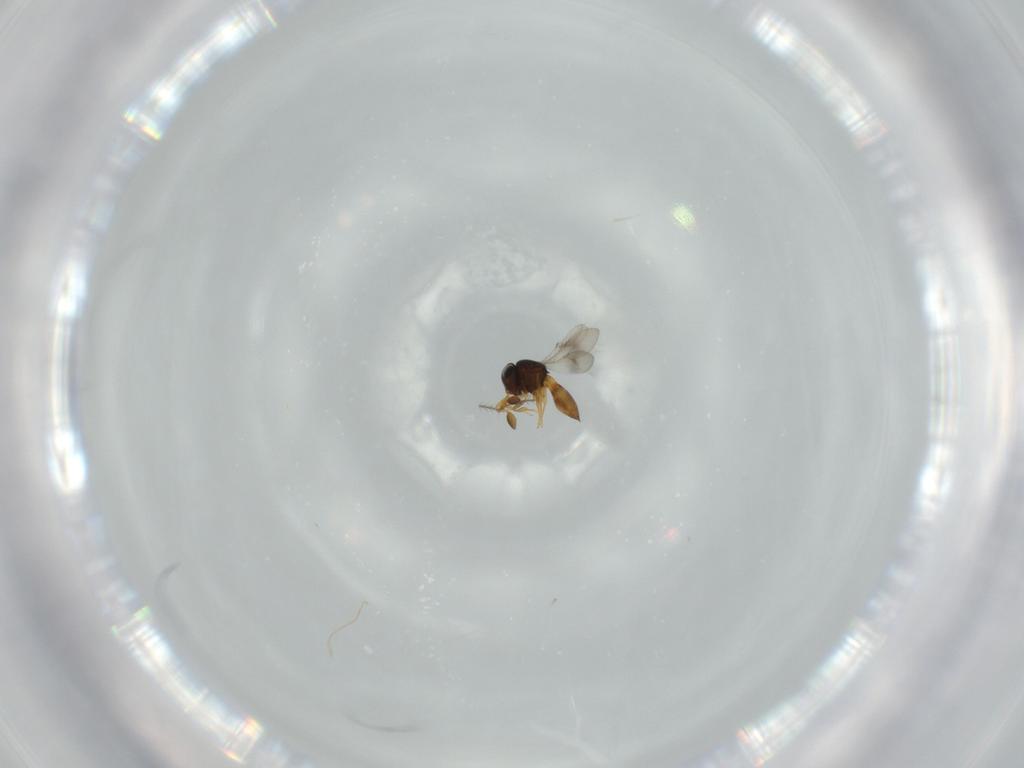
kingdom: Animalia
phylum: Arthropoda
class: Insecta
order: Hymenoptera
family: Scelionidae
